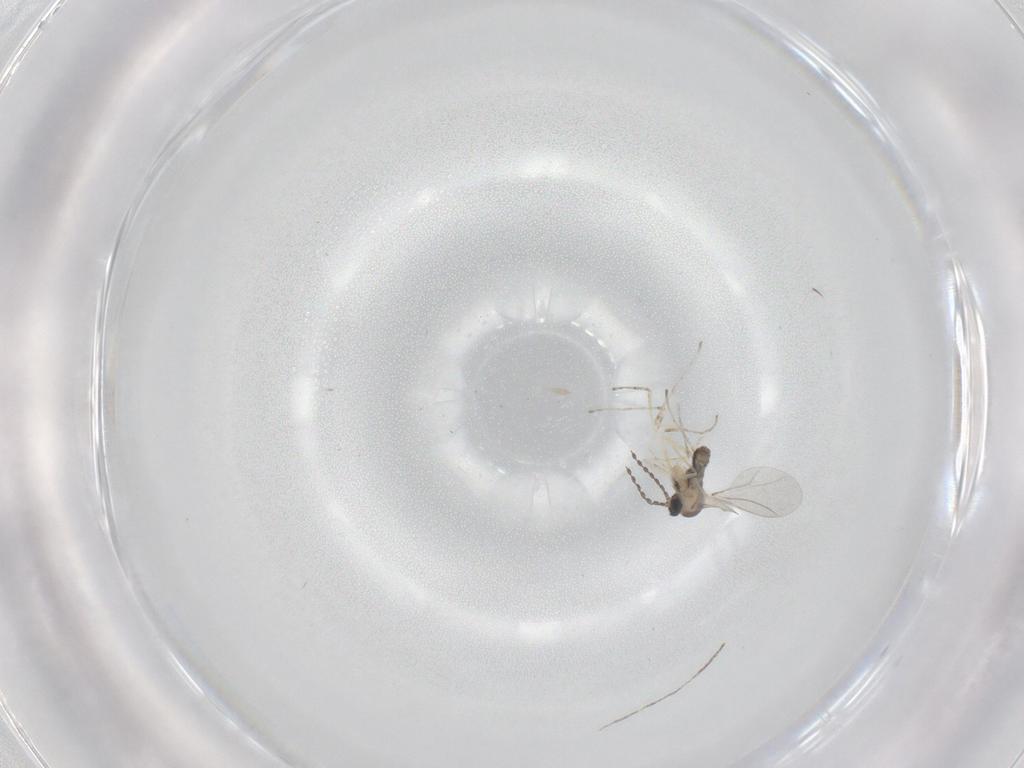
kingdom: Animalia
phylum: Arthropoda
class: Insecta
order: Diptera
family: Cecidomyiidae
